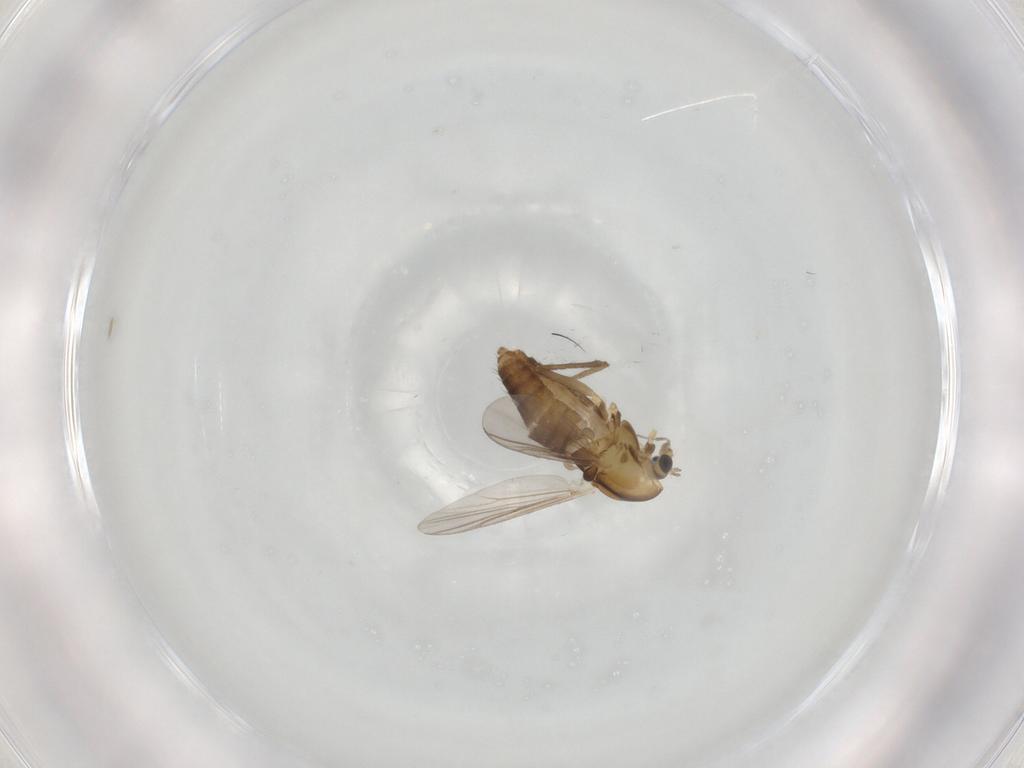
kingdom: Animalia
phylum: Arthropoda
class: Insecta
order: Diptera
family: Chironomidae
